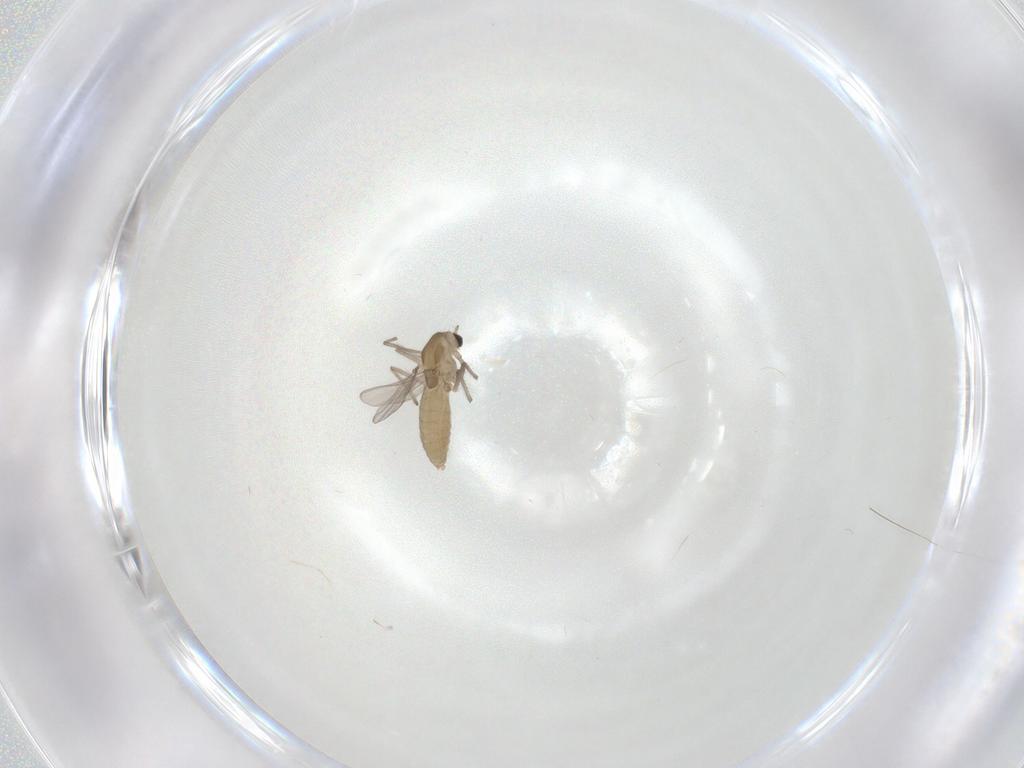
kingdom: Animalia
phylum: Arthropoda
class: Insecta
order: Diptera
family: Chironomidae
